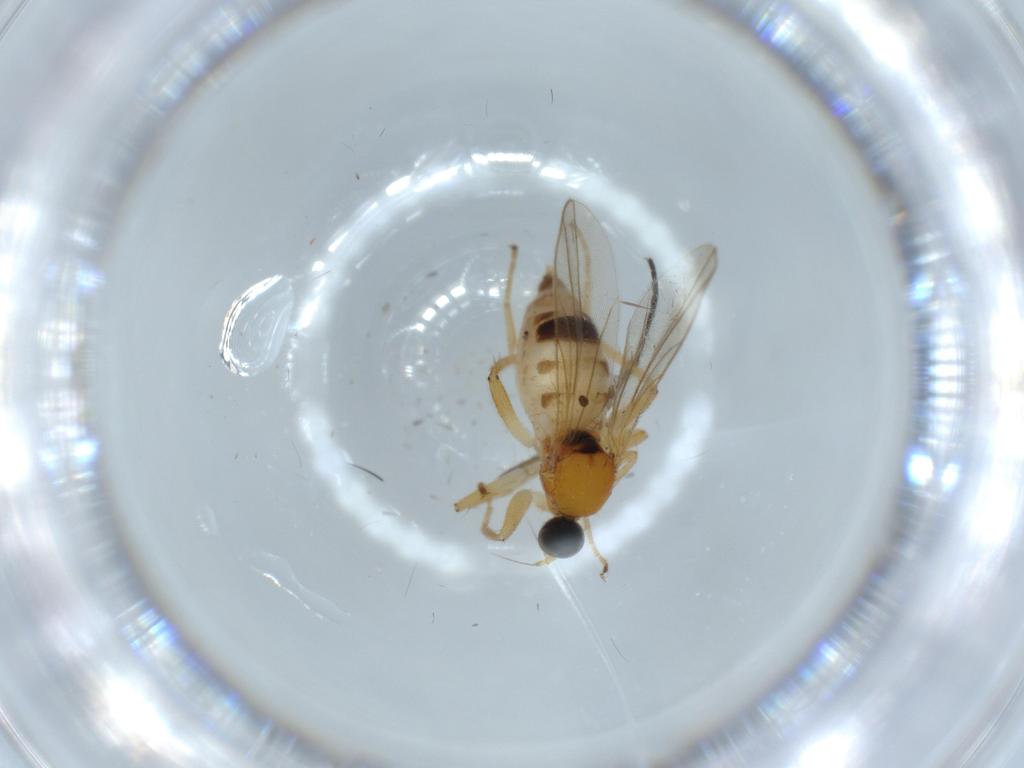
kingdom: Animalia
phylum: Arthropoda
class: Insecta
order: Diptera
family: Hybotidae
